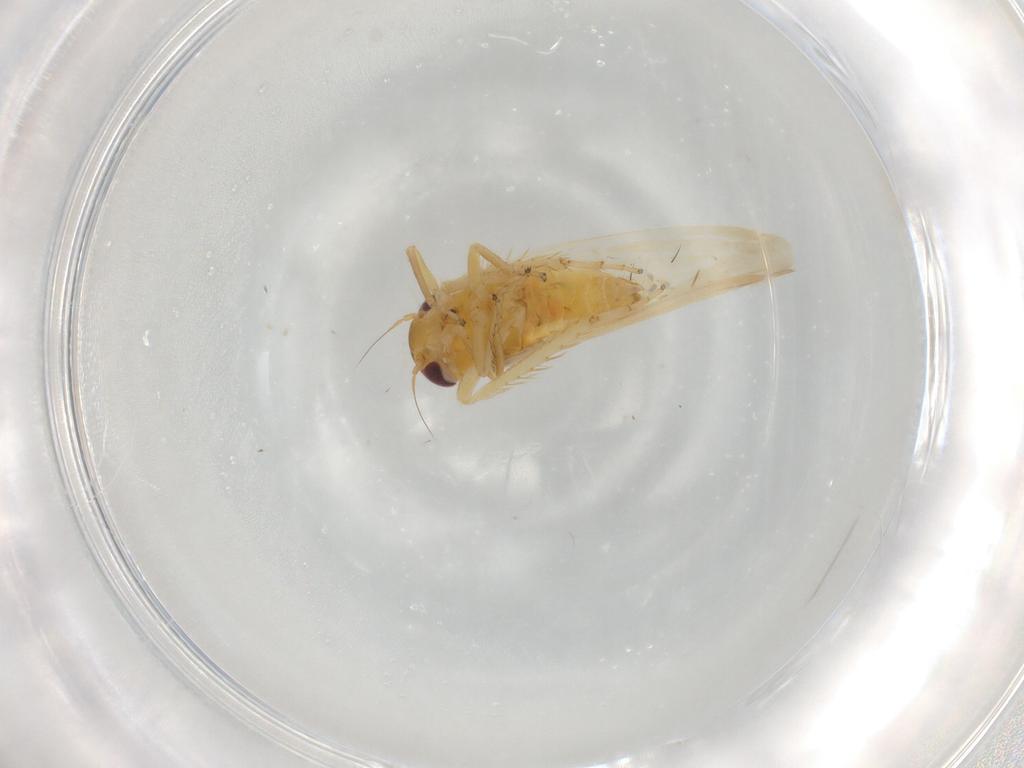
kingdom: Animalia
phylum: Arthropoda
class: Insecta
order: Hemiptera
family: Cicadellidae
